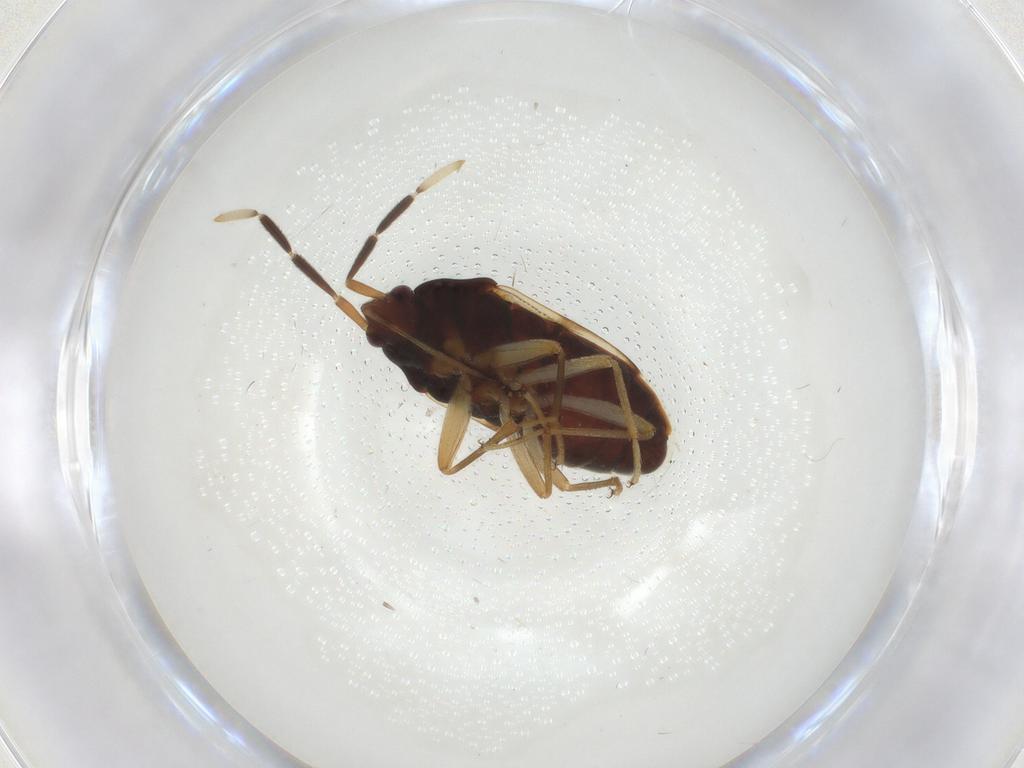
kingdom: Animalia
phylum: Arthropoda
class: Insecta
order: Hemiptera
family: Rhyparochromidae
